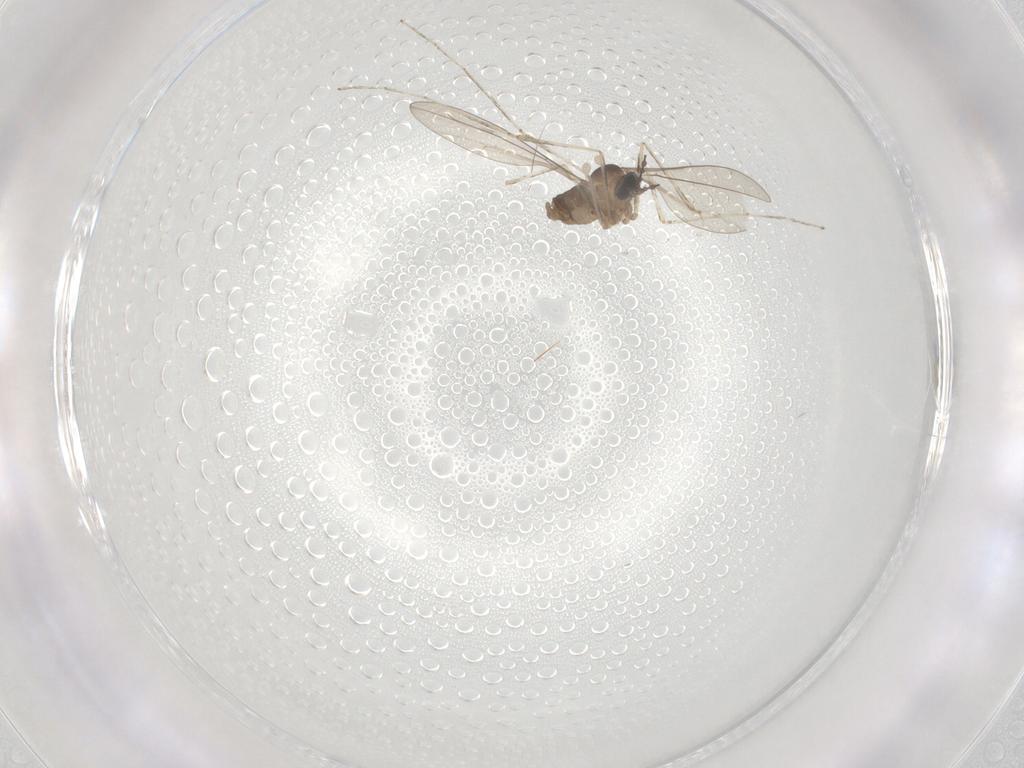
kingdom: Animalia
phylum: Arthropoda
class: Insecta
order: Diptera
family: Cecidomyiidae
